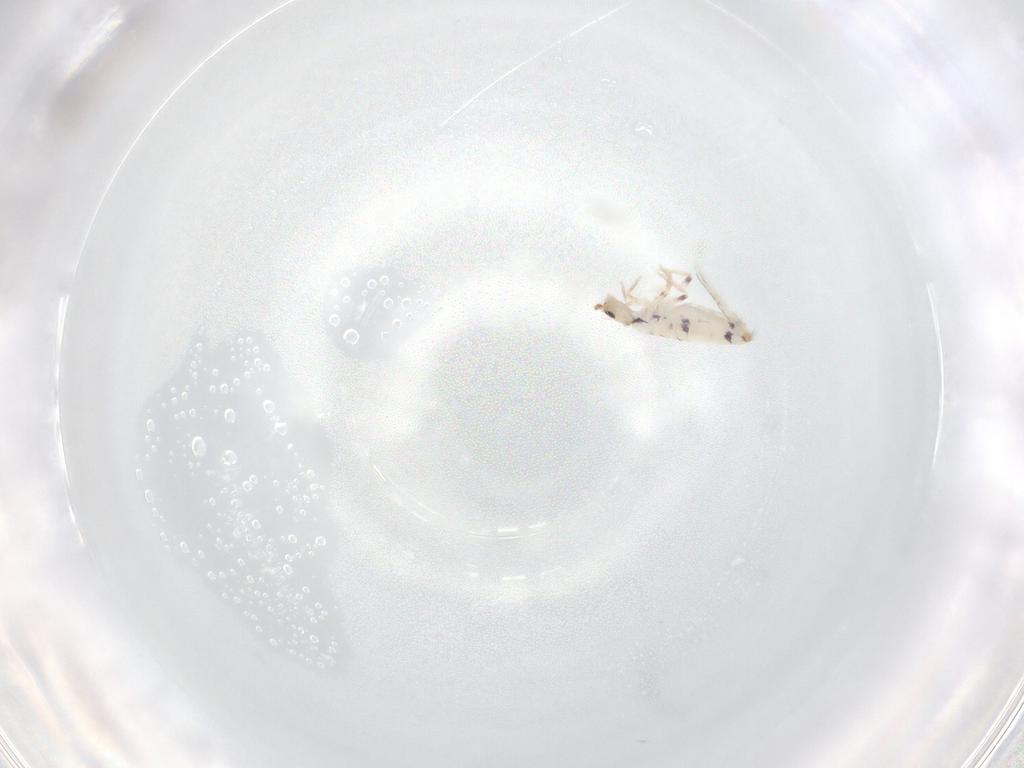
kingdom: Animalia
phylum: Arthropoda
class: Collembola
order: Entomobryomorpha
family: Entomobryidae
